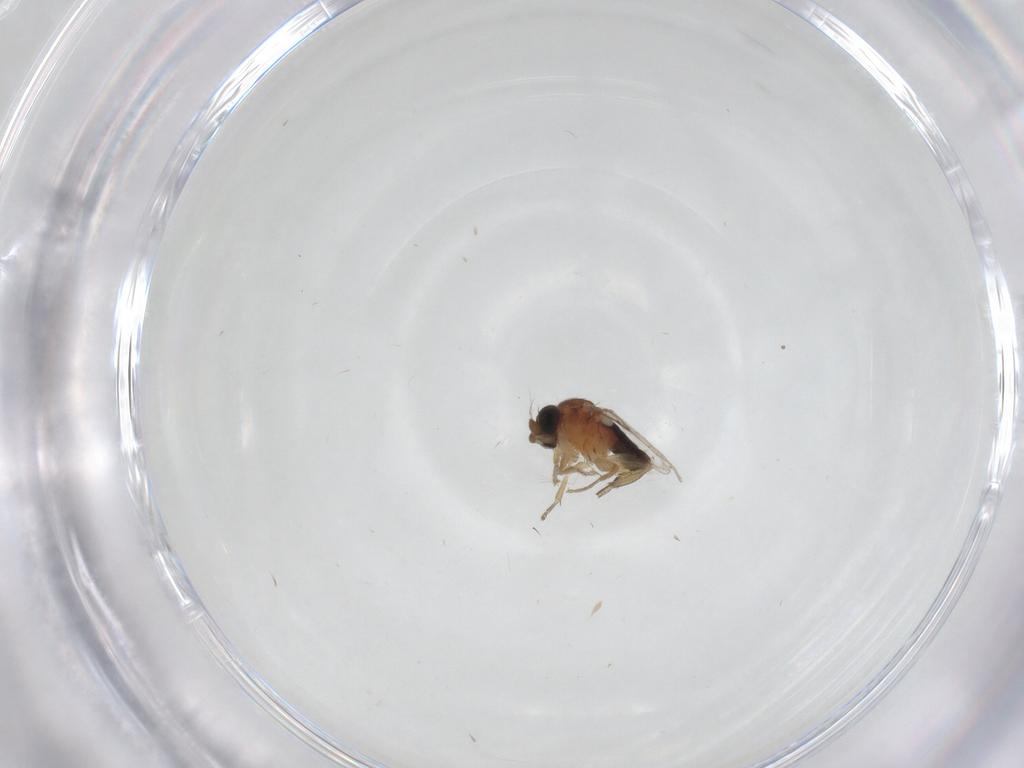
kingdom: Animalia
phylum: Arthropoda
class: Insecta
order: Diptera
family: Phoridae
